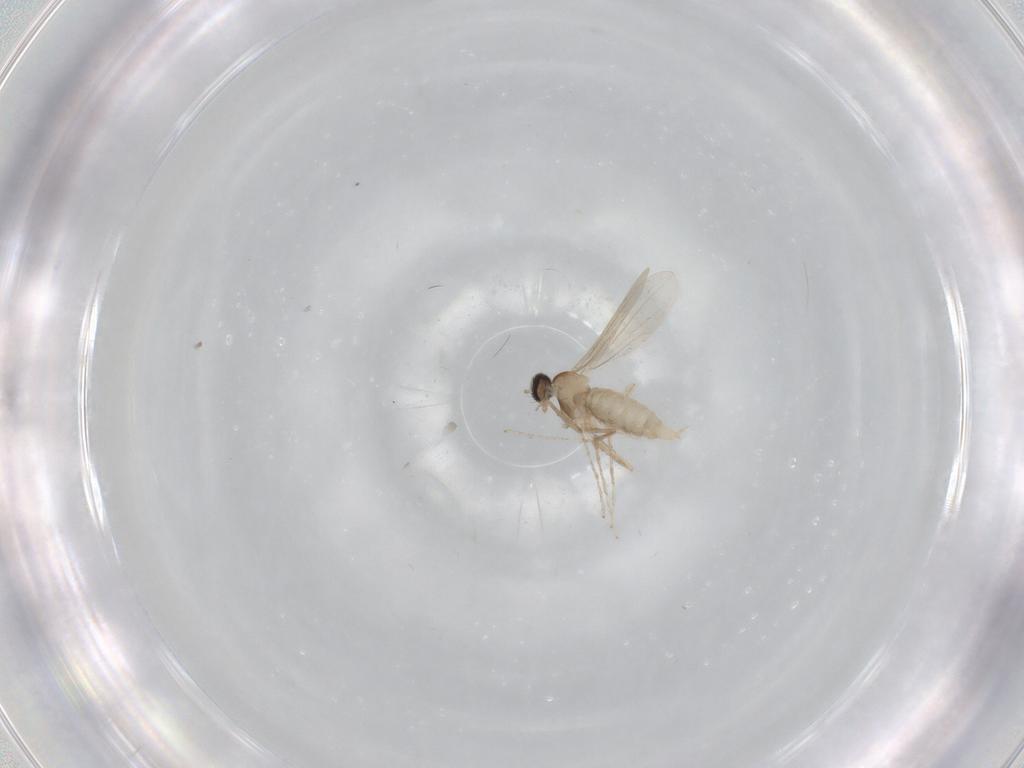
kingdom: Animalia
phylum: Arthropoda
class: Insecta
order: Diptera
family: Cecidomyiidae
